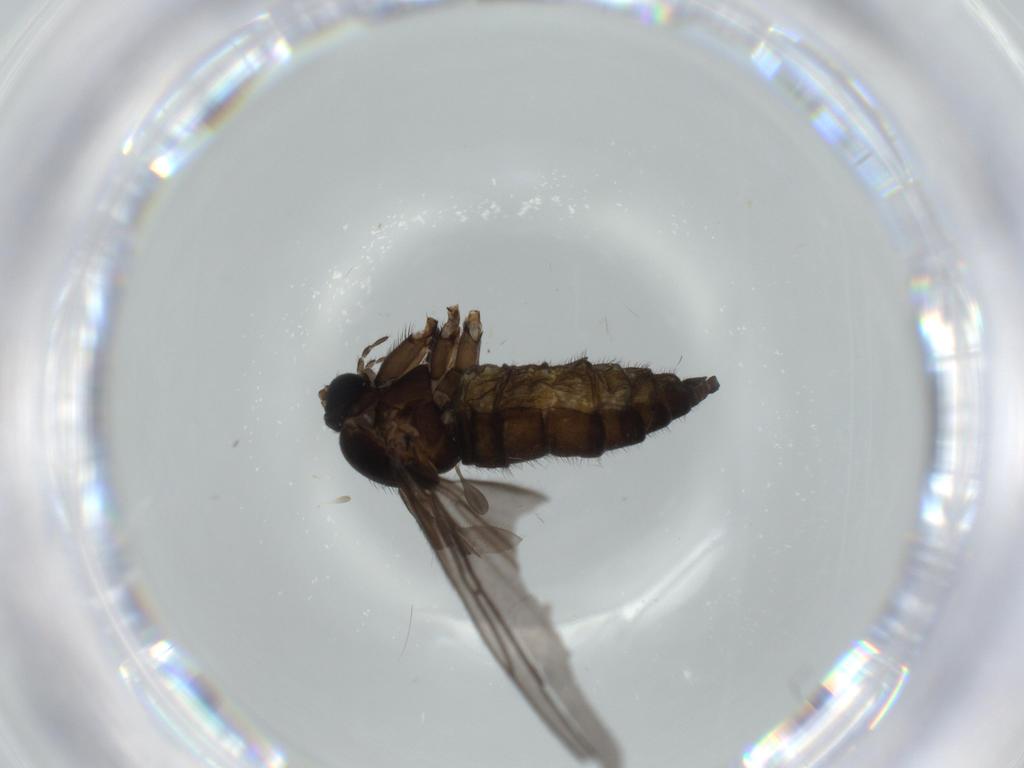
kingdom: Animalia
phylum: Arthropoda
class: Insecta
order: Diptera
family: Sciaridae
